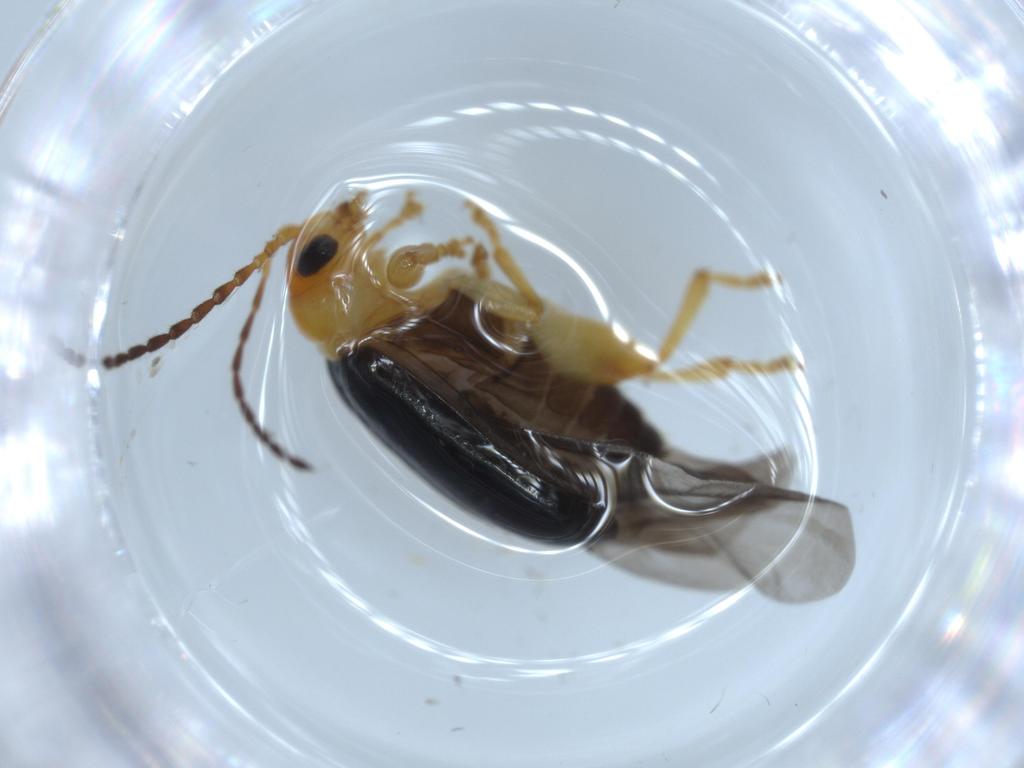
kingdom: Animalia
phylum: Arthropoda
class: Insecta
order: Coleoptera
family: Chrysomelidae
